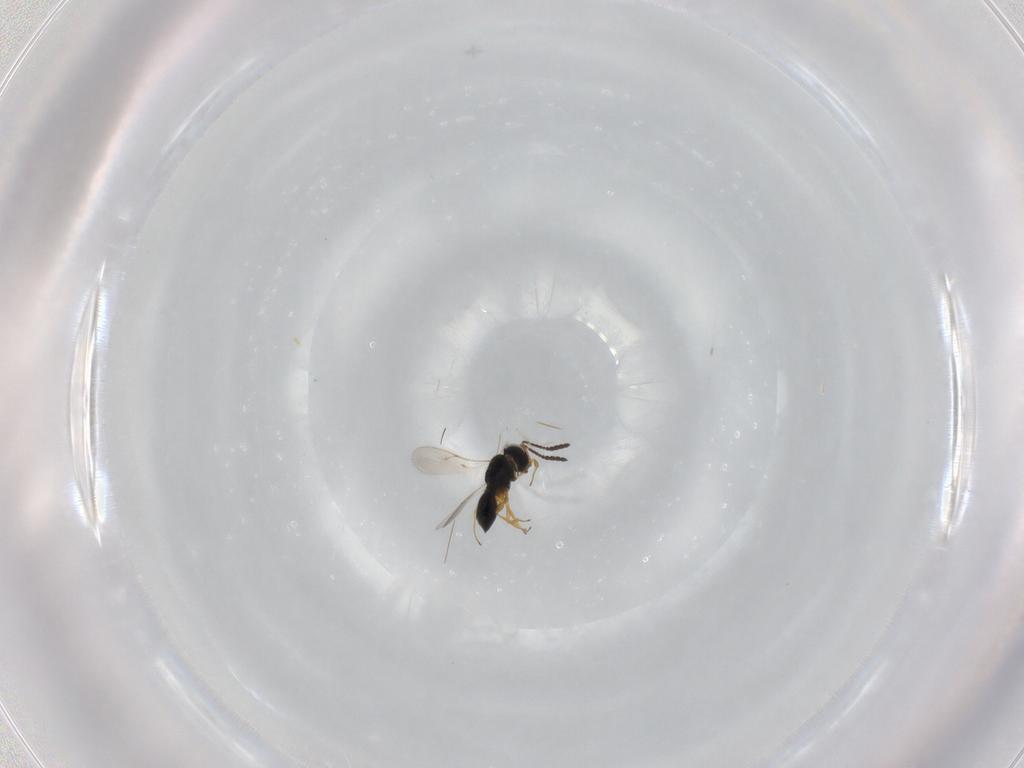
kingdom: Animalia
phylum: Arthropoda
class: Insecta
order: Hymenoptera
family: Scelionidae
